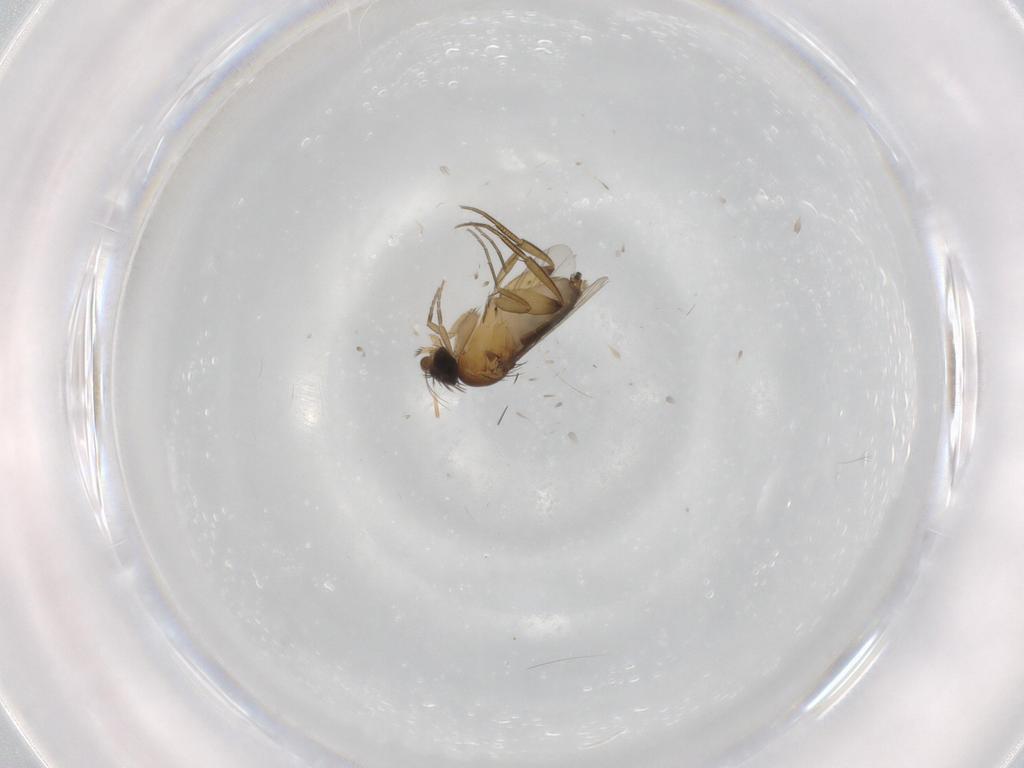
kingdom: Animalia
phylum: Arthropoda
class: Insecta
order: Diptera
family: Phoridae
